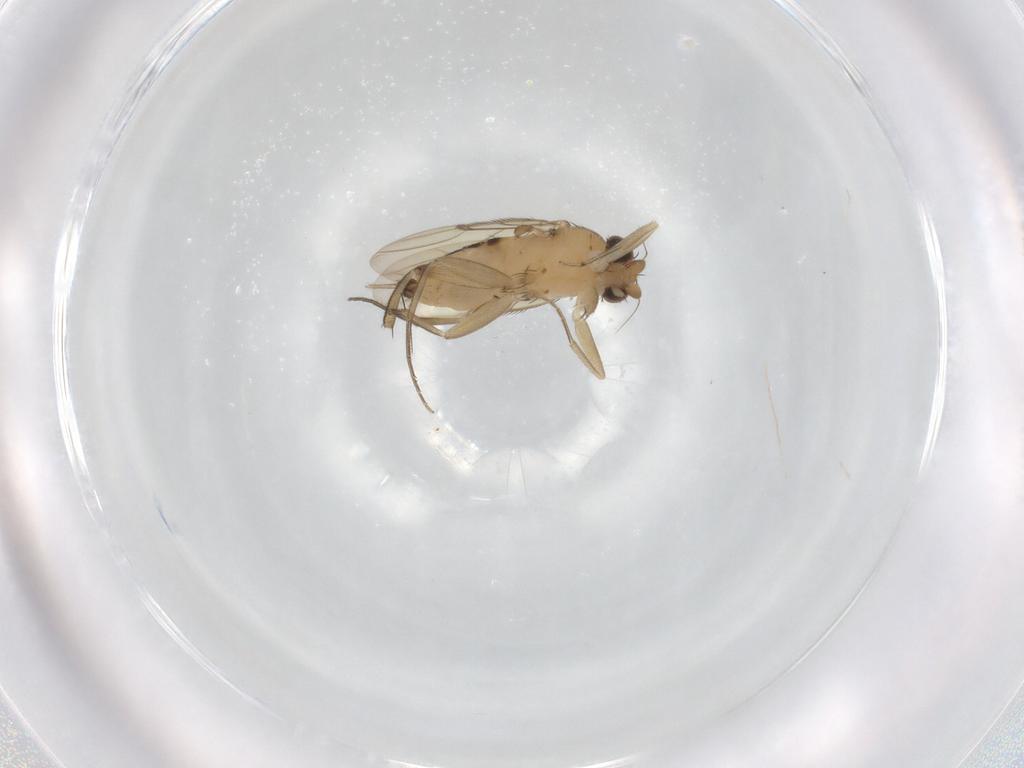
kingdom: Animalia
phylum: Arthropoda
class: Insecta
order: Diptera
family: Phoridae
